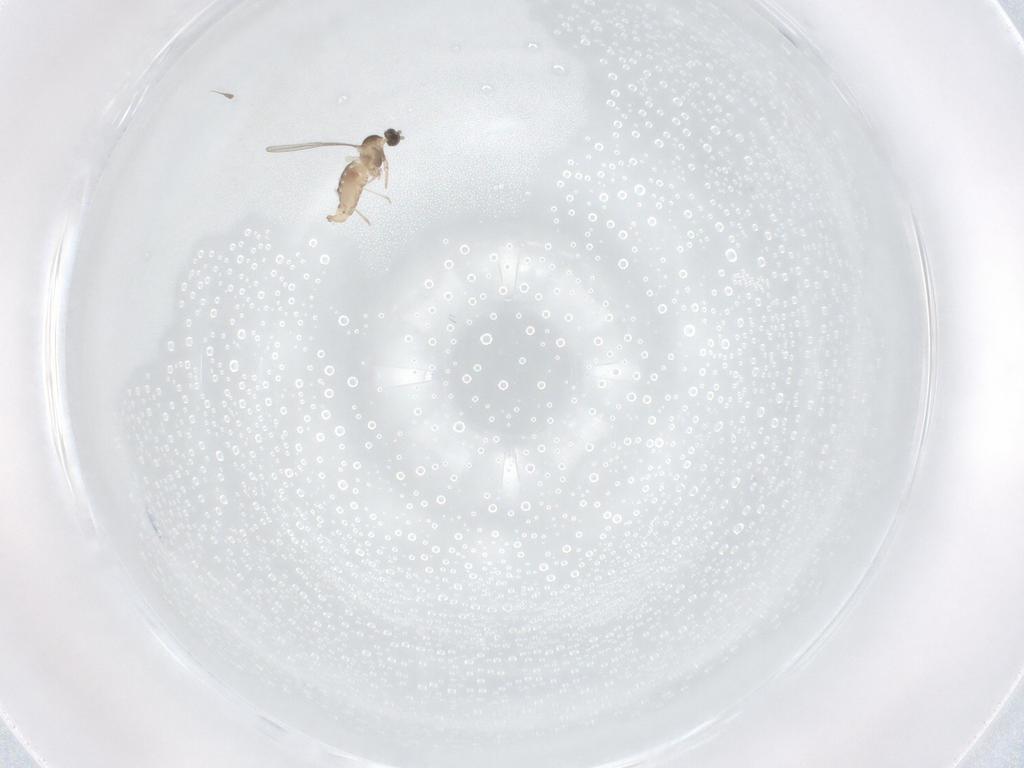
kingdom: Animalia
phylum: Arthropoda
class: Insecta
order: Diptera
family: Cecidomyiidae
